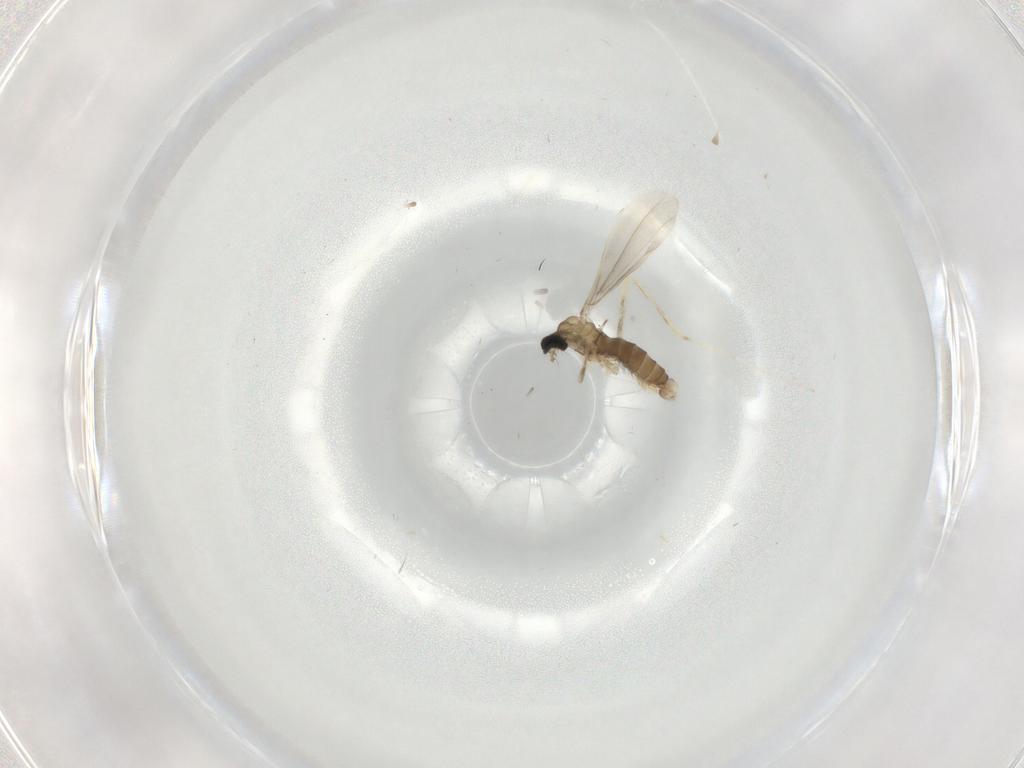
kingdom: Animalia
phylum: Arthropoda
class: Insecta
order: Diptera
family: Cecidomyiidae
